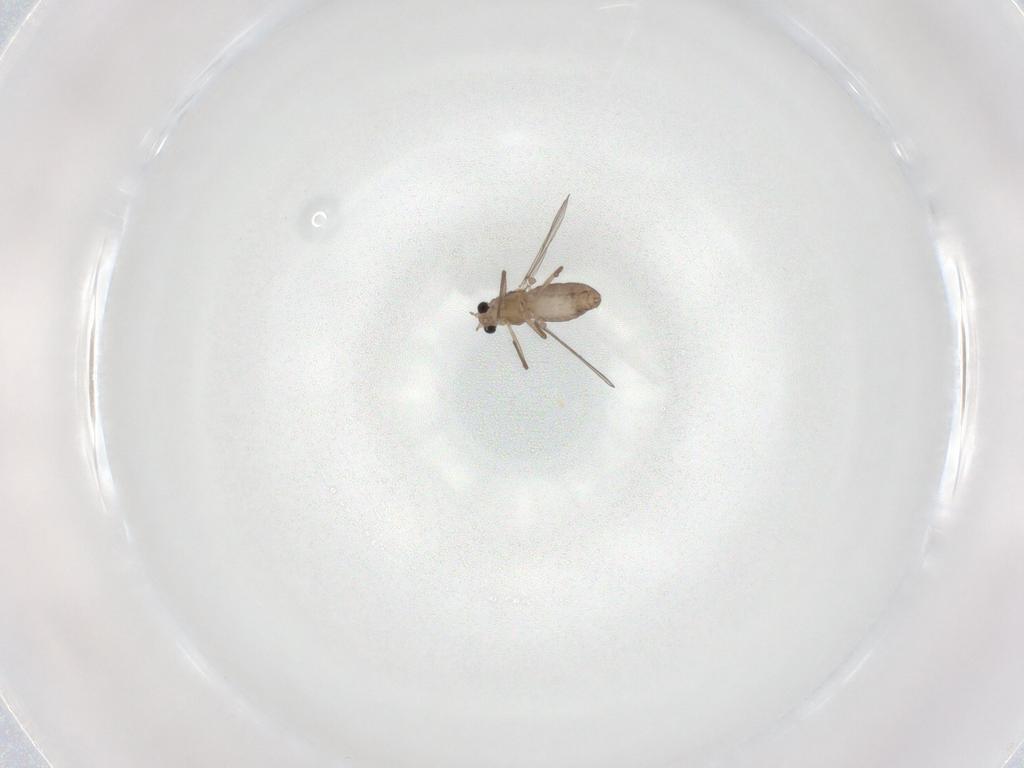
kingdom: Animalia
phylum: Arthropoda
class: Insecta
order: Diptera
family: Chironomidae
